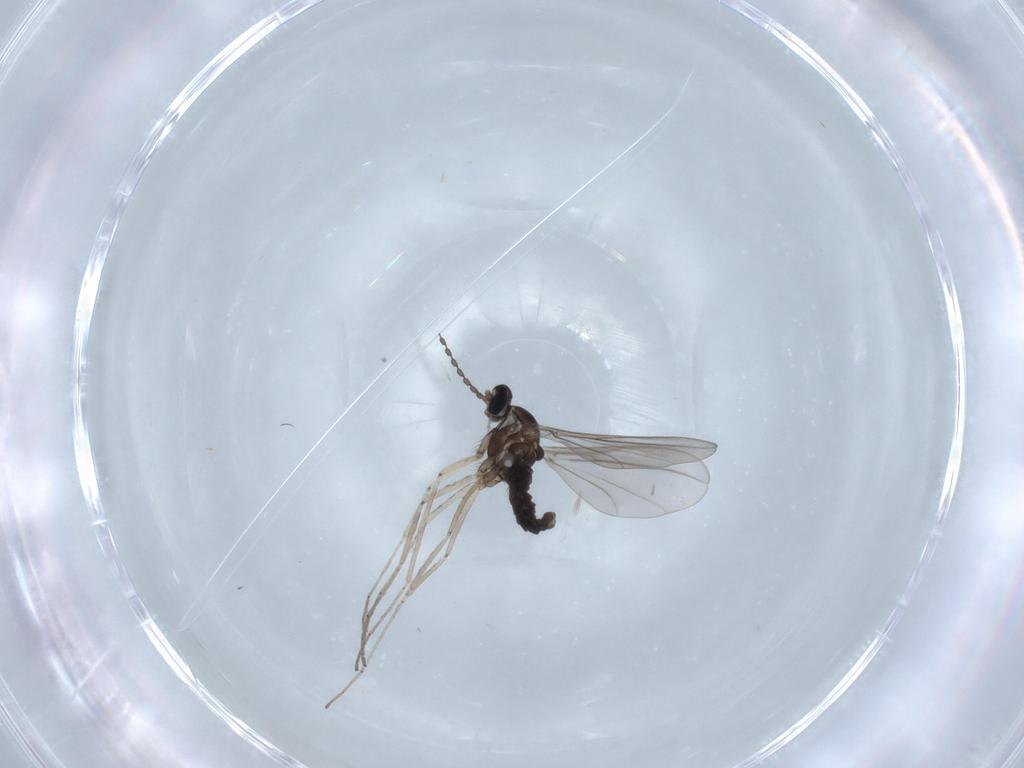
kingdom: Animalia
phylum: Arthropoda
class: Insecta
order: Diptera
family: Cecidomyiidae
